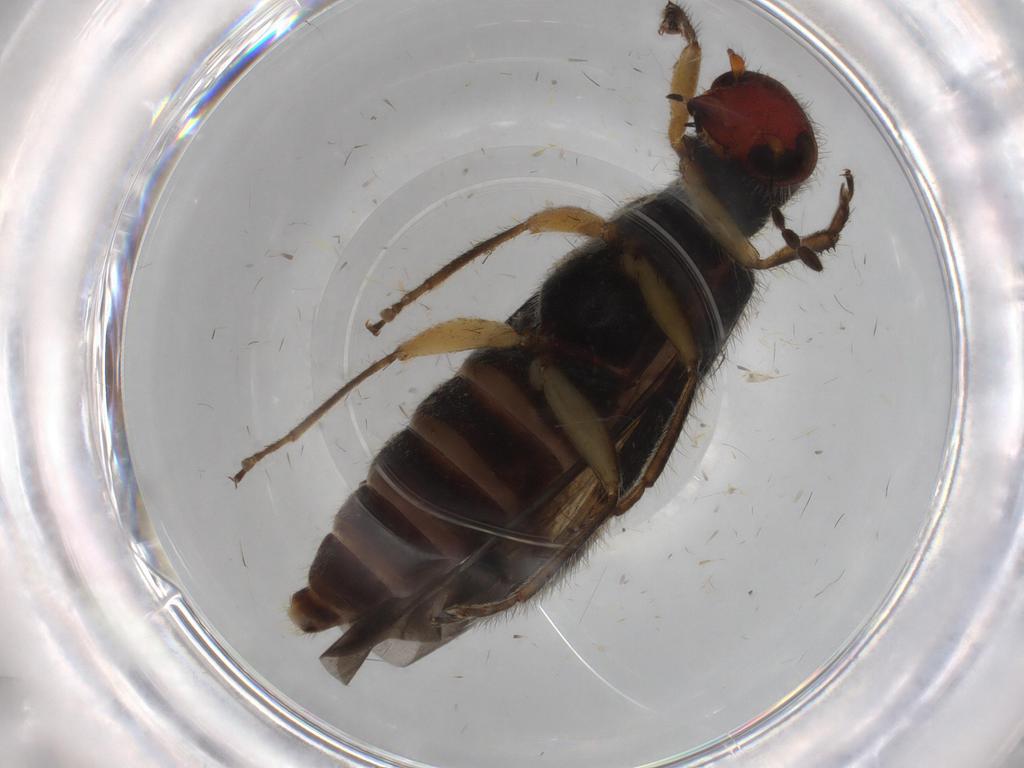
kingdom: Animalia
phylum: Arthropoda
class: Insecta
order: Coleoptera
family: Cleridae
